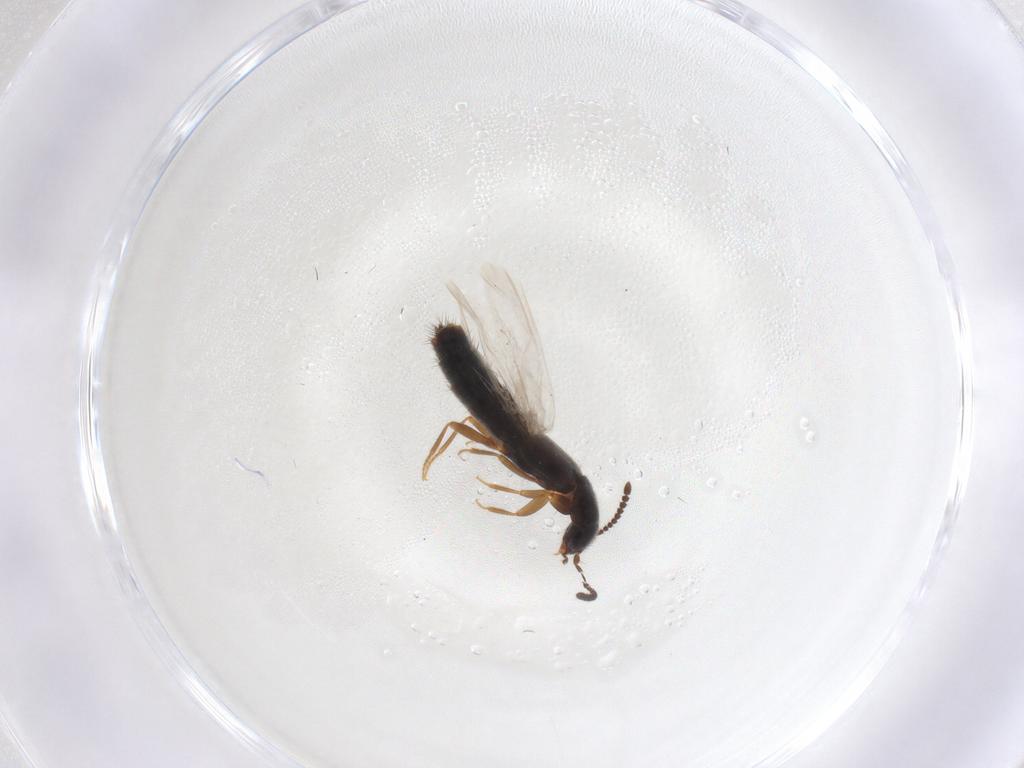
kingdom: Animalia
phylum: Arthropoda
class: Insecta
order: Coleoptera
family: Staphylinidae
